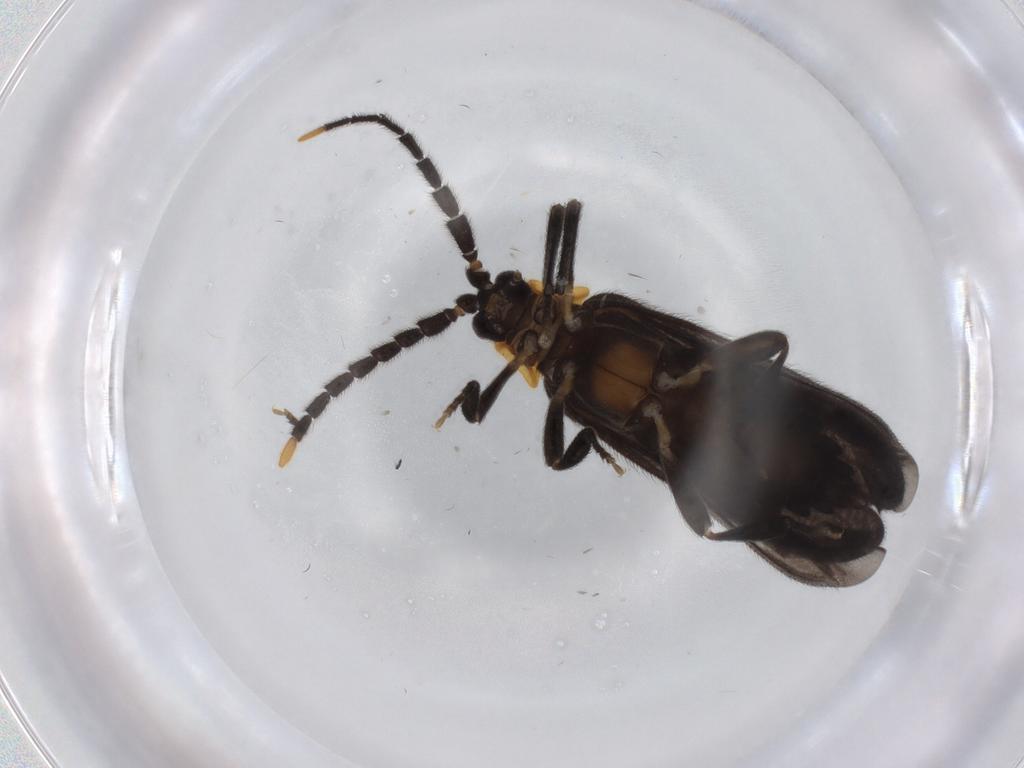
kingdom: Animalia
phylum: Arthropoda
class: Insecta
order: Coleoptera
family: Lycidae
